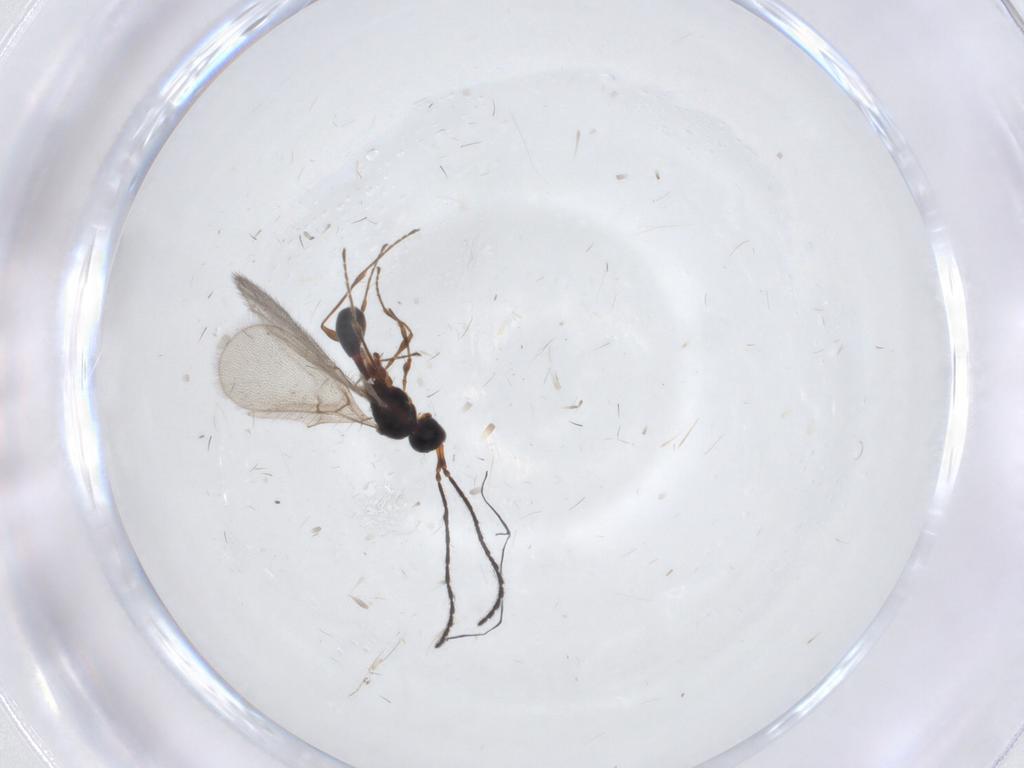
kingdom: Animalia
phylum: Arthropoda
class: Insecta
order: Hymenoptera
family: Diapriidae
